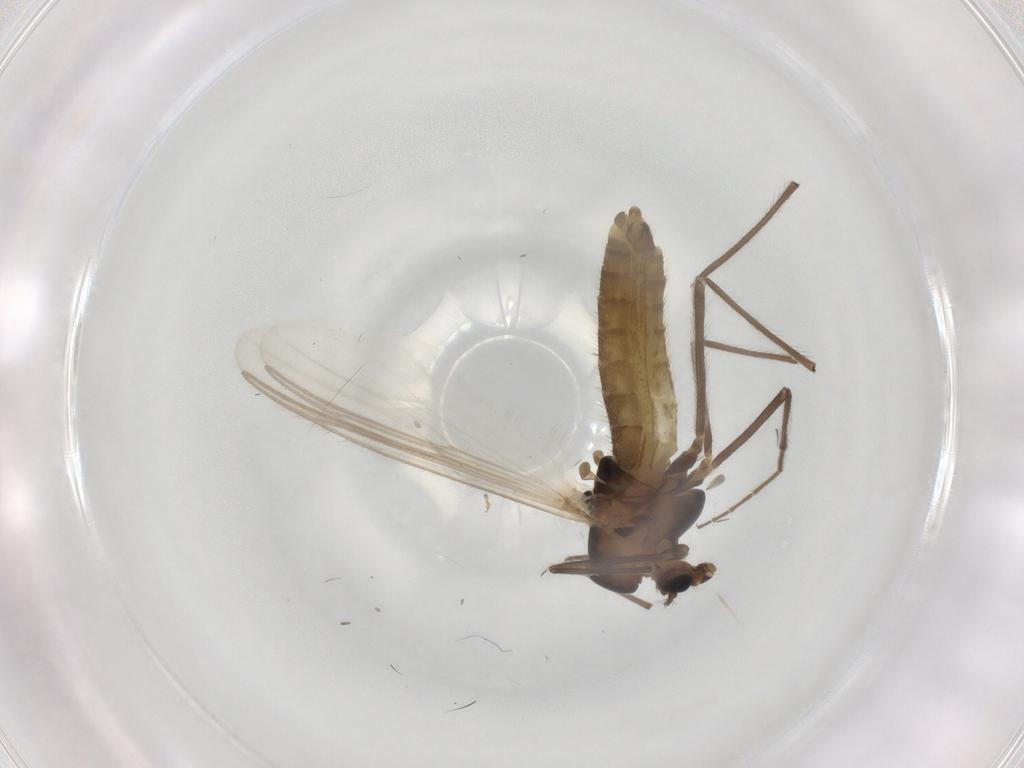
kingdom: Animalia
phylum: Arthropoda
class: Insecta
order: Diptera
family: Chironomidae
